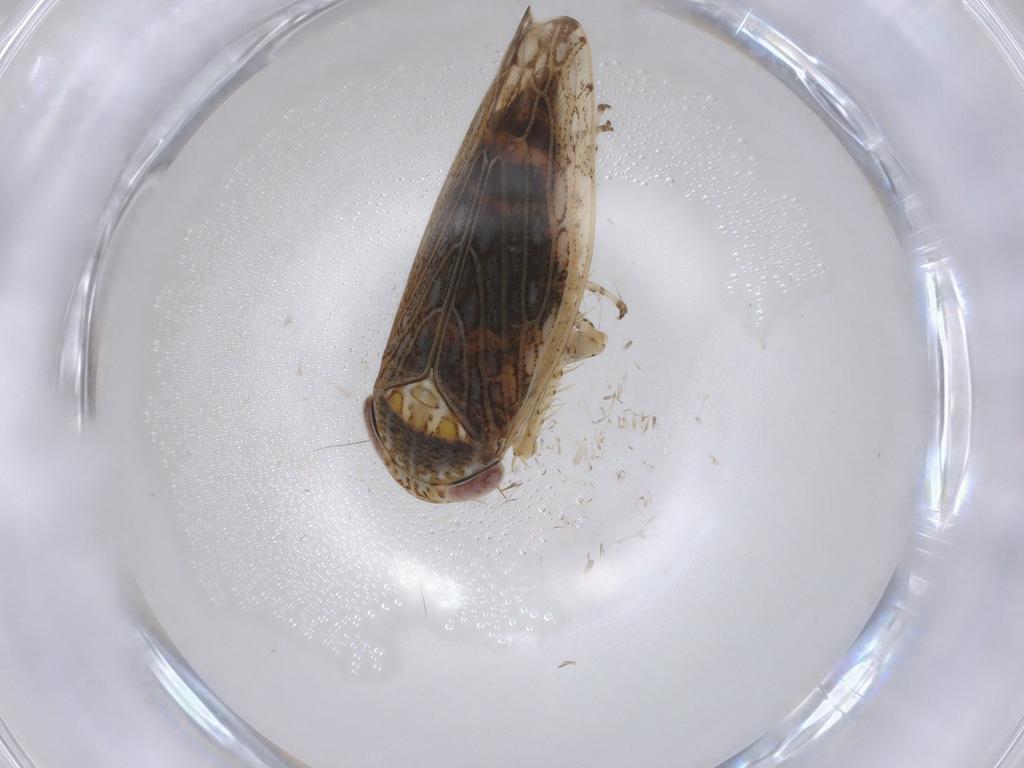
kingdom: Animalia
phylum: Arthropoda
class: Insecta
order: Hemiptera
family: Cicadellidae
